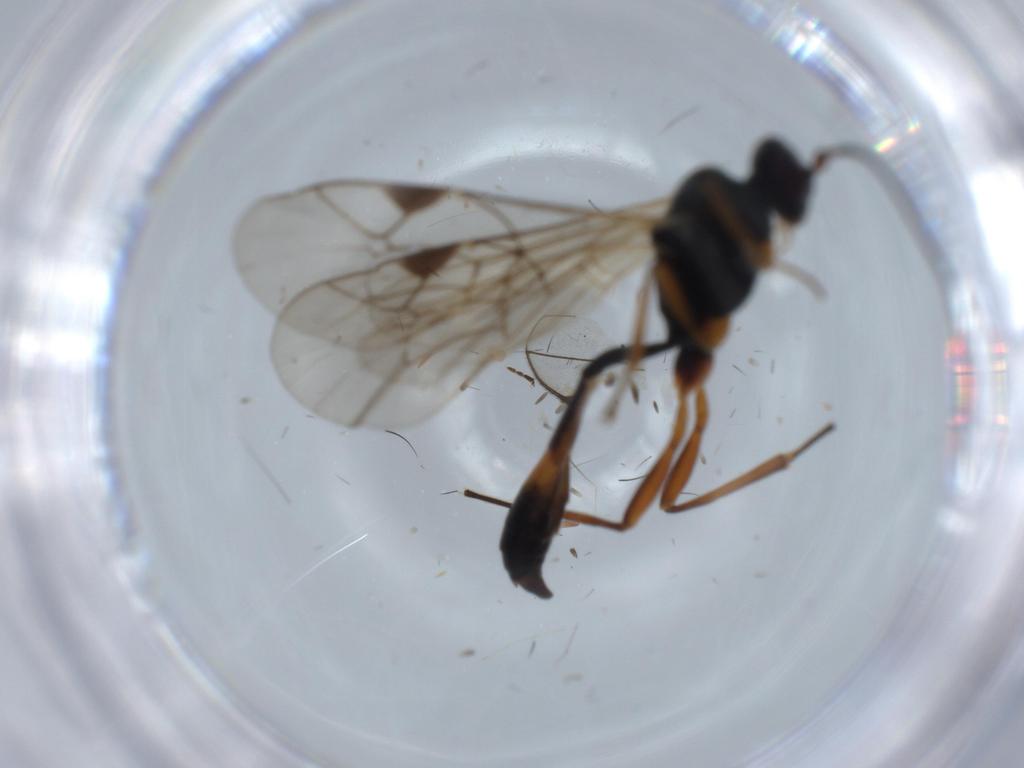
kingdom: Animalia
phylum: Arthropoda
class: Insecta
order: Hymenoptera
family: Ichneumonidae
